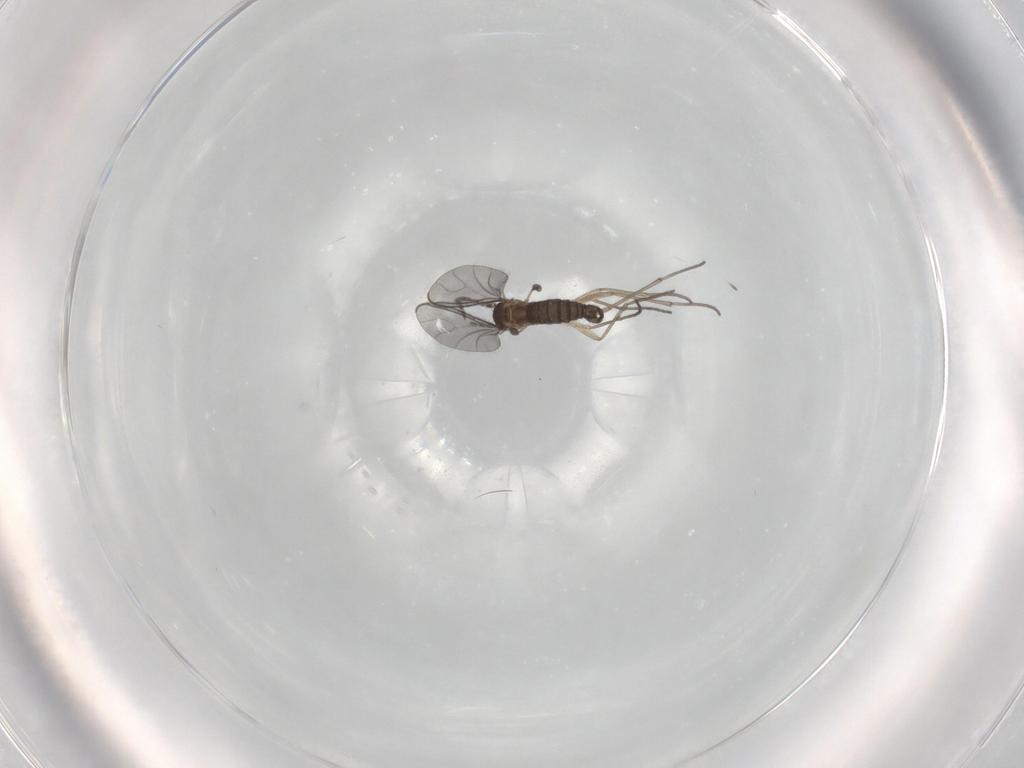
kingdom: Animalia
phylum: Arthropoda
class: Insecta
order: Diptera
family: Sciaridae
